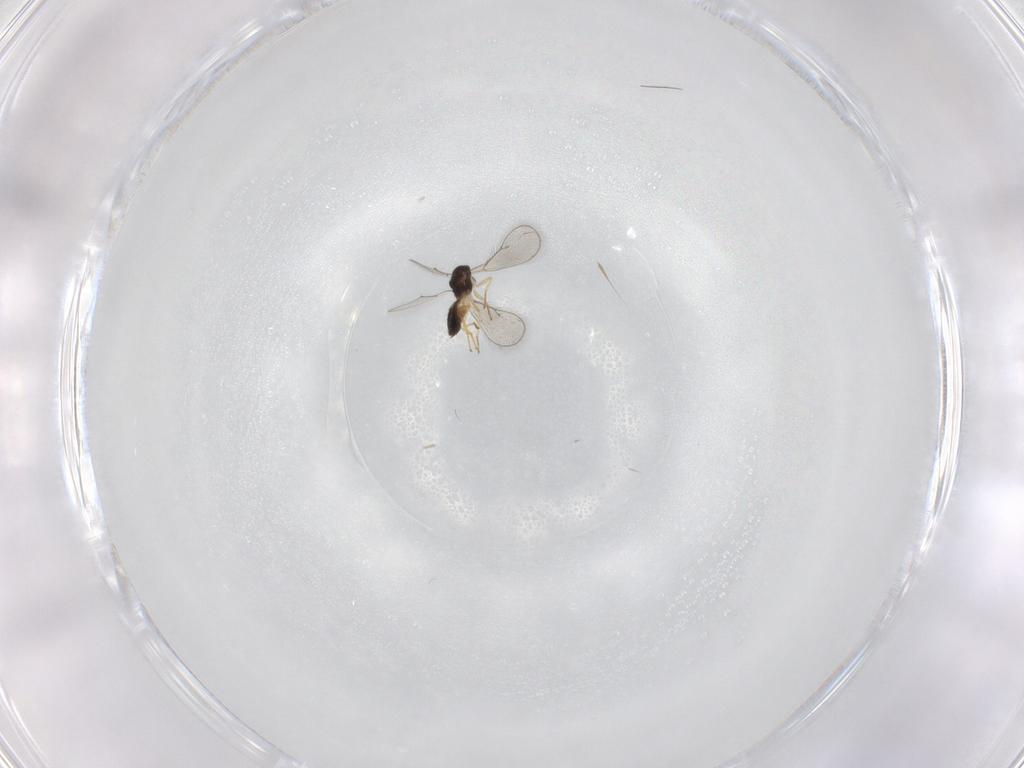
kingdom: Animalia
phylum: Arthropoda
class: Insecta
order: Hymenoptera
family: Eulophidae
